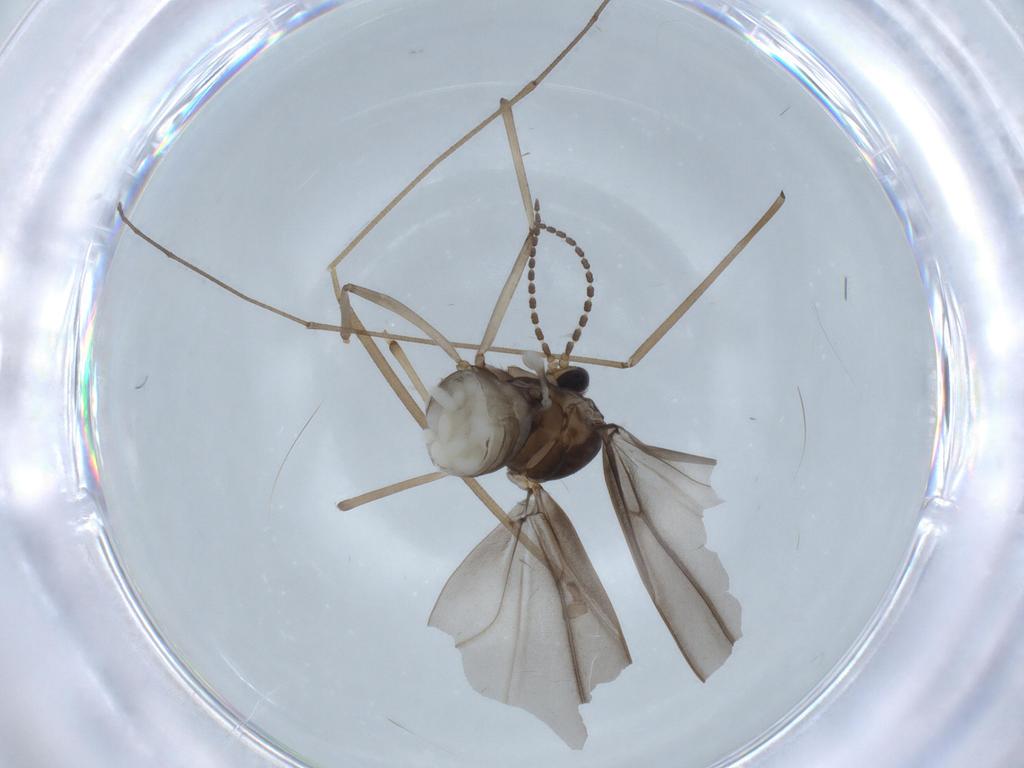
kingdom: Animalia
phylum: Arthropoda
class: Insecta
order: Diptera
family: Cecidomyiidae
